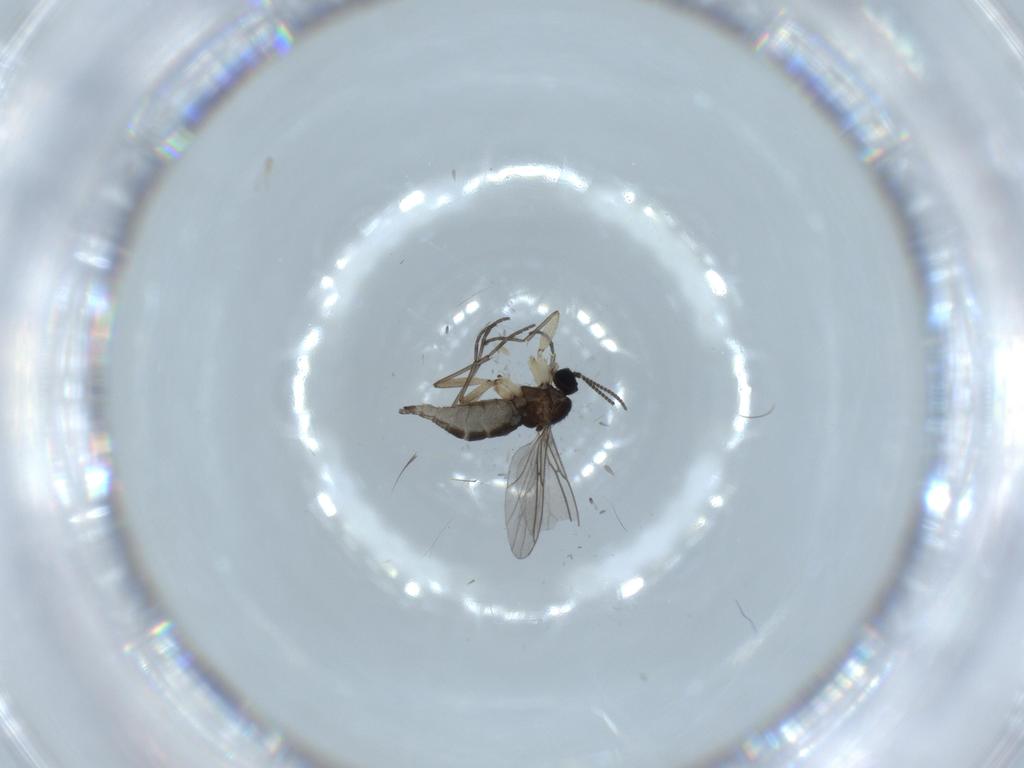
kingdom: Animalia
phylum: Arthropoda
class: Insecta
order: Diptera
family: Sciaridae
